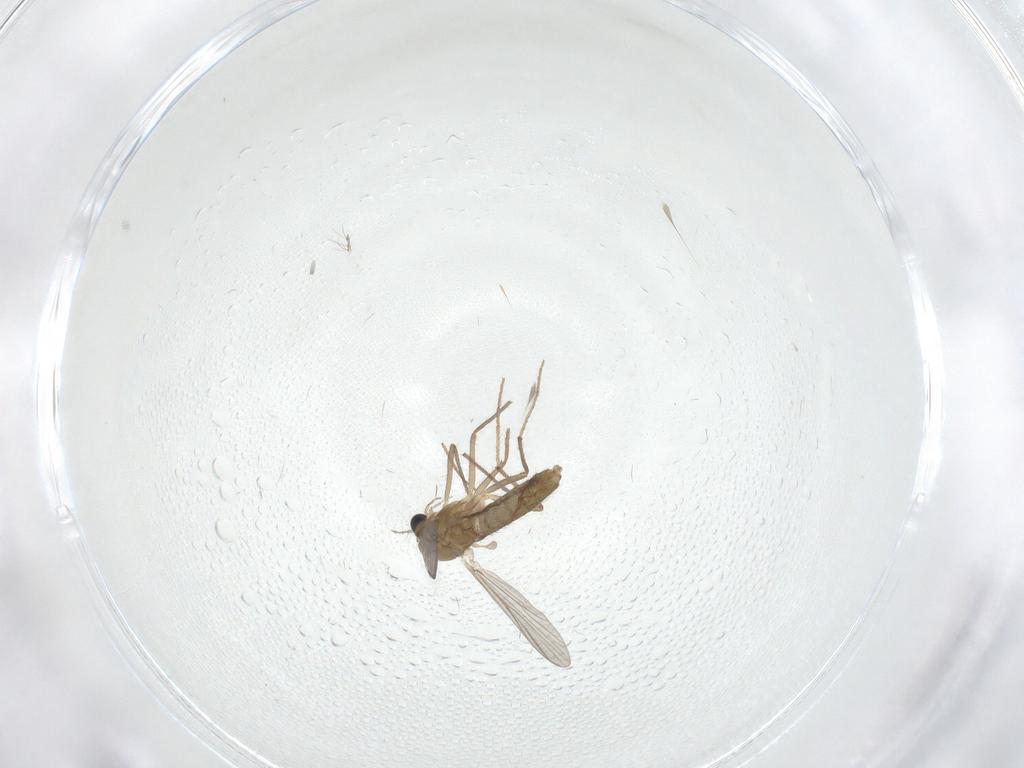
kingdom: Animalia
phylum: Arthropoda
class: Insecta
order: Diptera
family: Chironomidae
